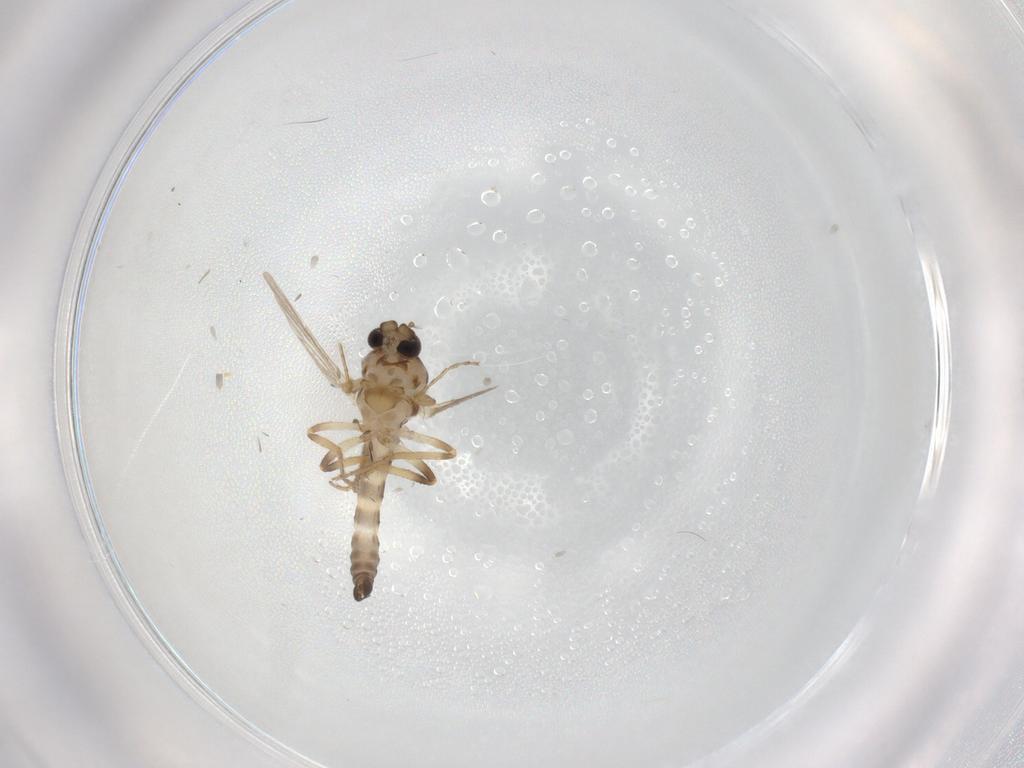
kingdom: Animalia
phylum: Arthropoda
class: Insecta
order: Diptera
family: Ceratopogonidae
